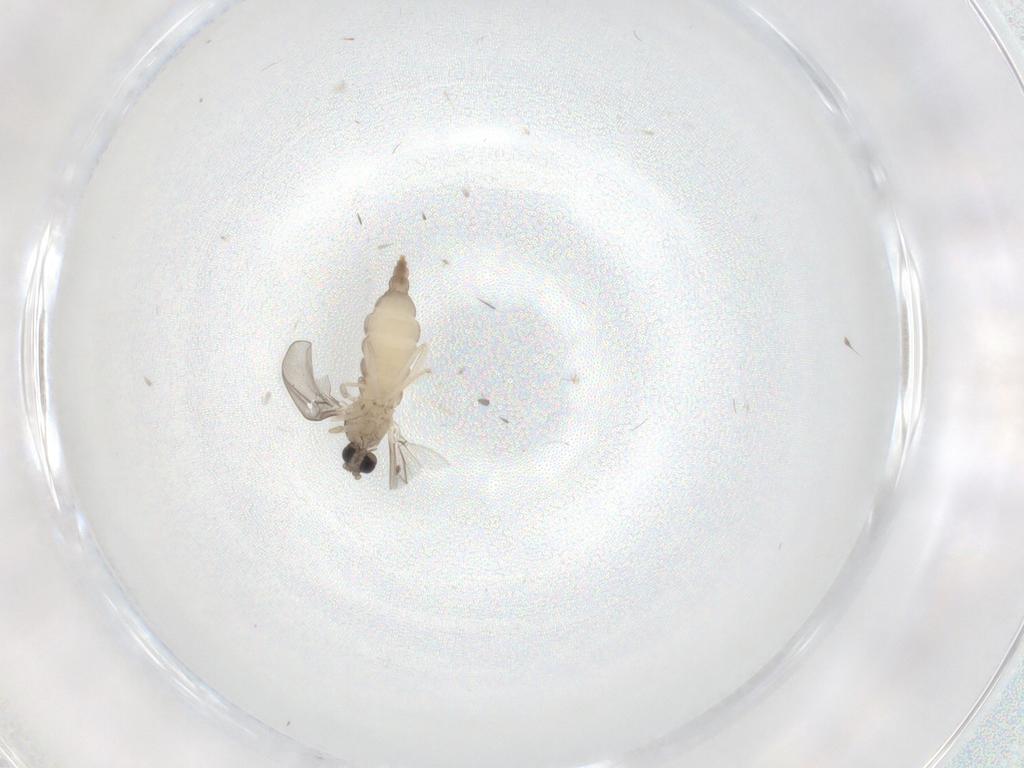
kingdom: Animalia
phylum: Arthropoda
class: Insecta
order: Diptera
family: Cecidomyiidae
